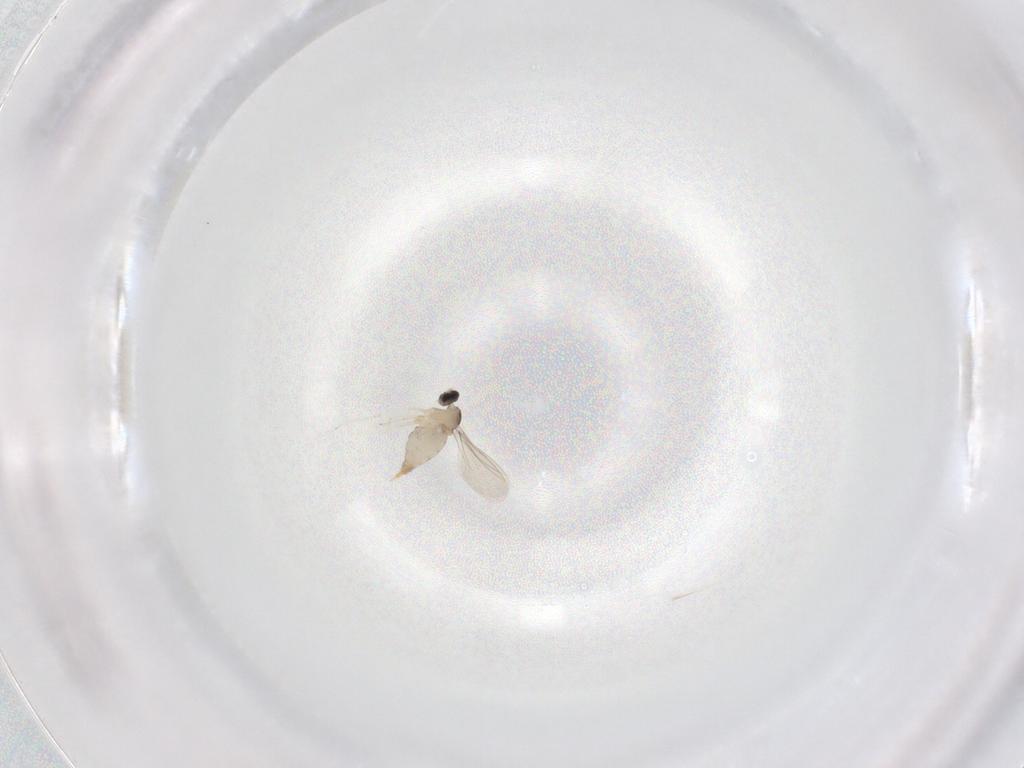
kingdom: Animalia
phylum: Arthropoda
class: Insecta
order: Diptera
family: Cecidomyiidae
